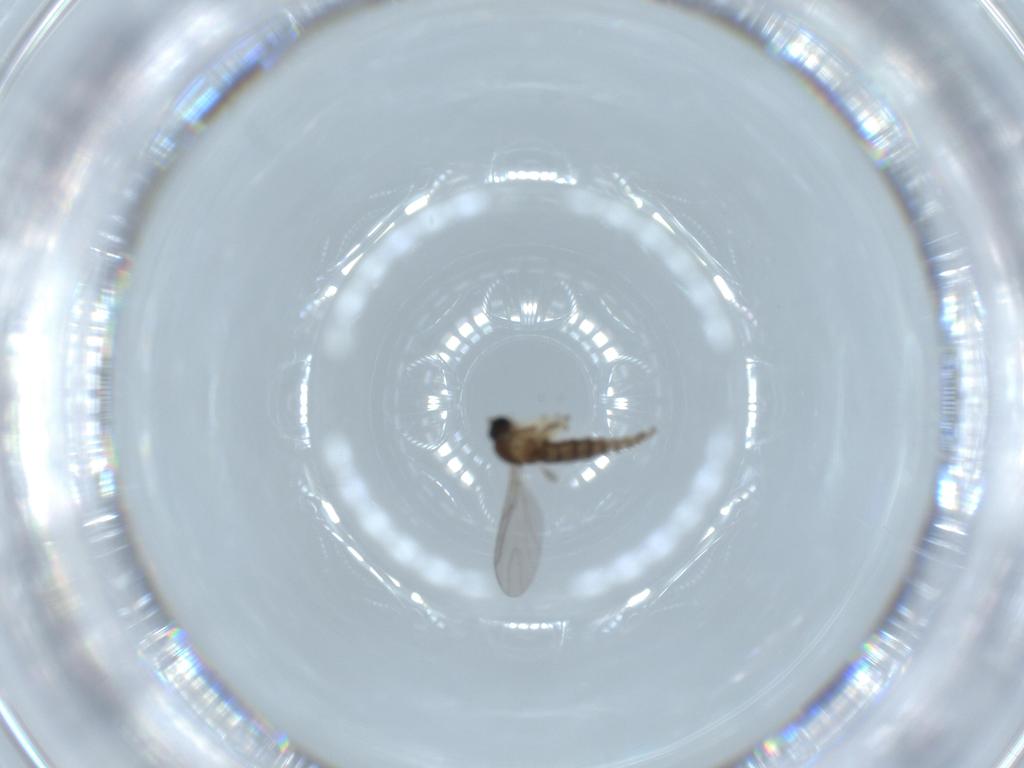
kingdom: Animalia
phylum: Arthropoda
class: Insecta
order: Diptera
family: Sciaridae
